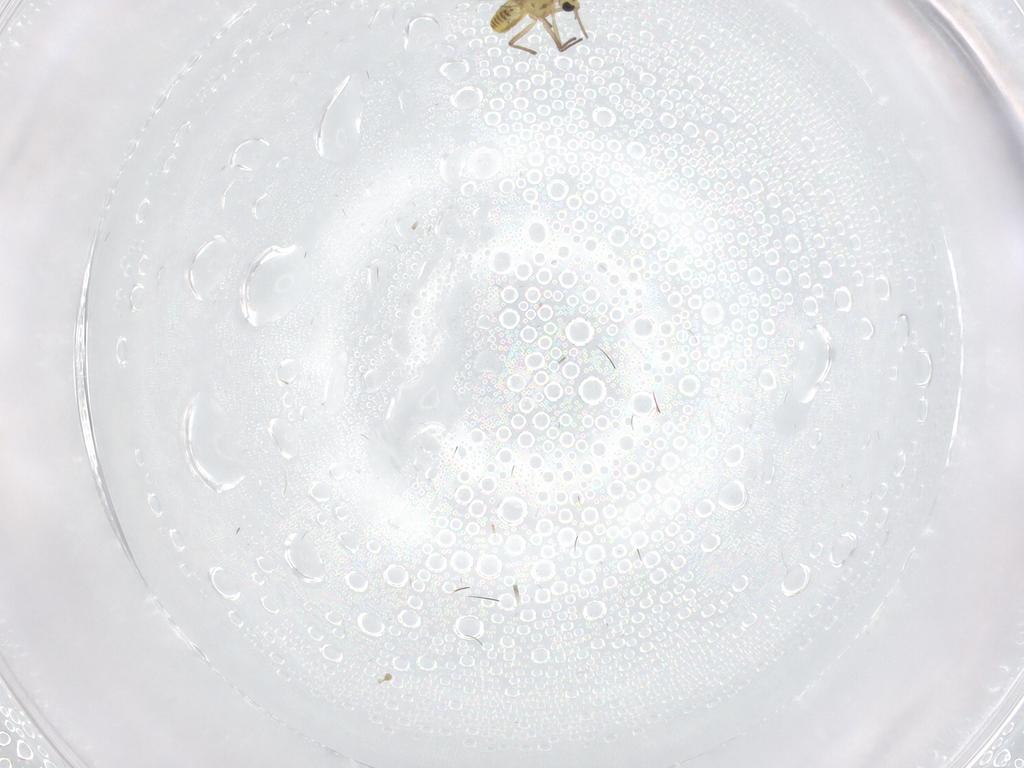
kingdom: Animalia
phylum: Arthropoda
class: Insecta
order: Diptera
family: Chironomidae
